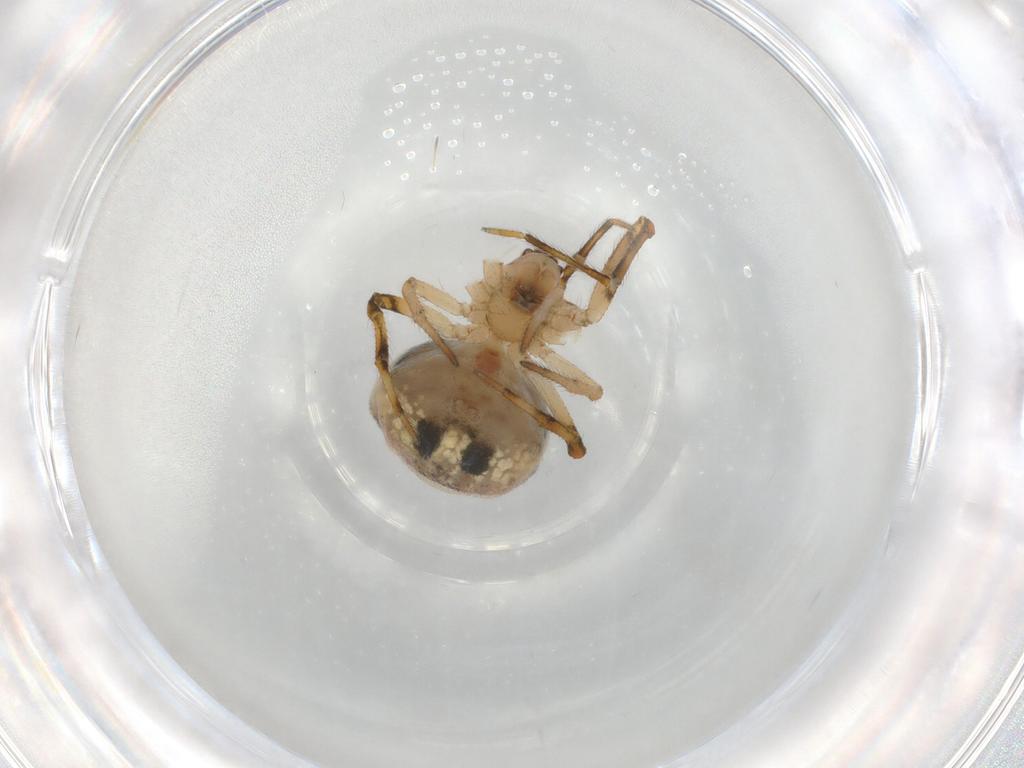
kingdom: Animalia
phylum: Arthropoda
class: Arachnida
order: Araneae
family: Theridiidae
